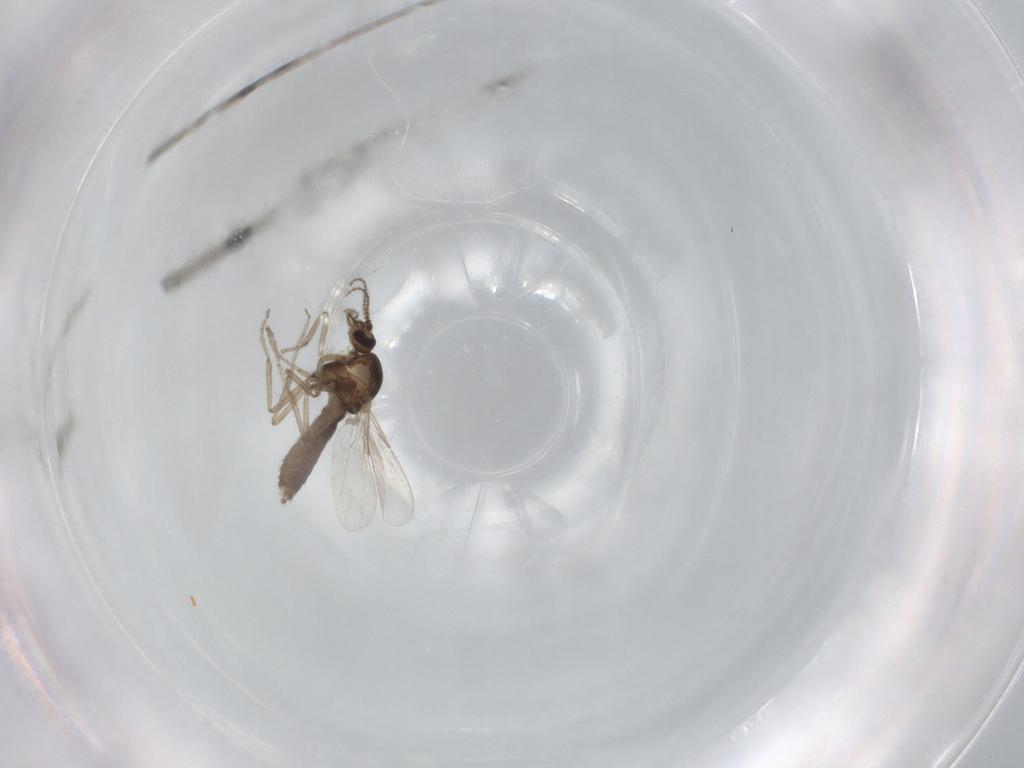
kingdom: Animalia
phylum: Arthropoda
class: Insecta
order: Diptera
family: Ceratopogonidae
